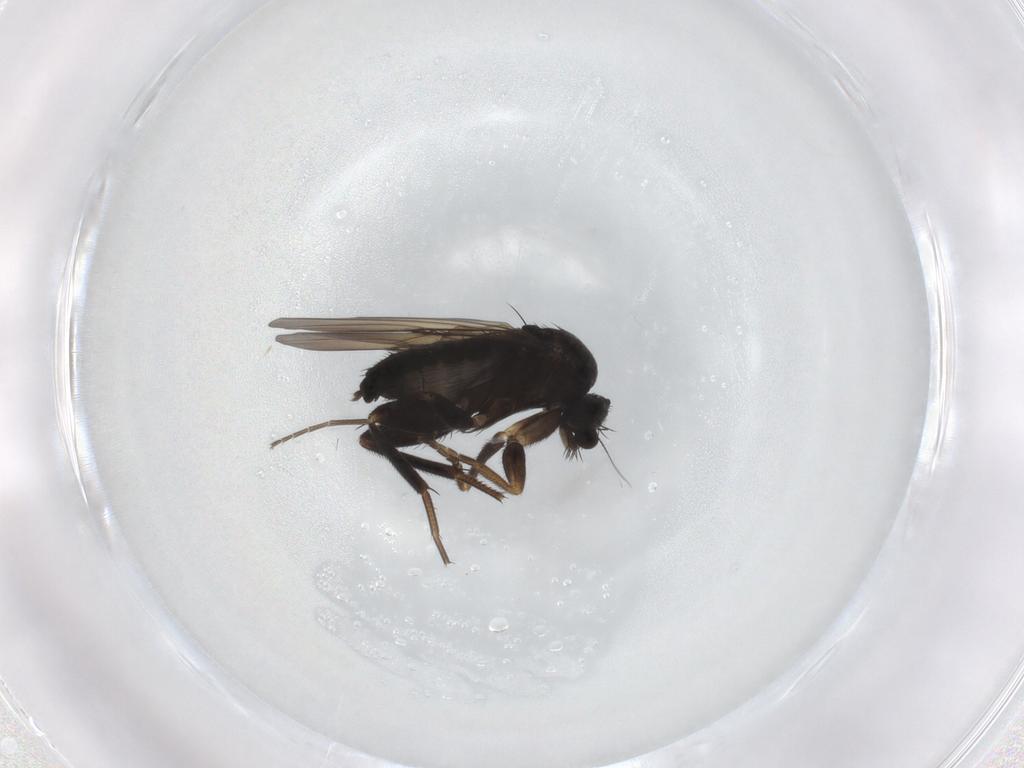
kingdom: Animalia
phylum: Arthropoda
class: Insecta
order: Diptera
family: Phoridae
